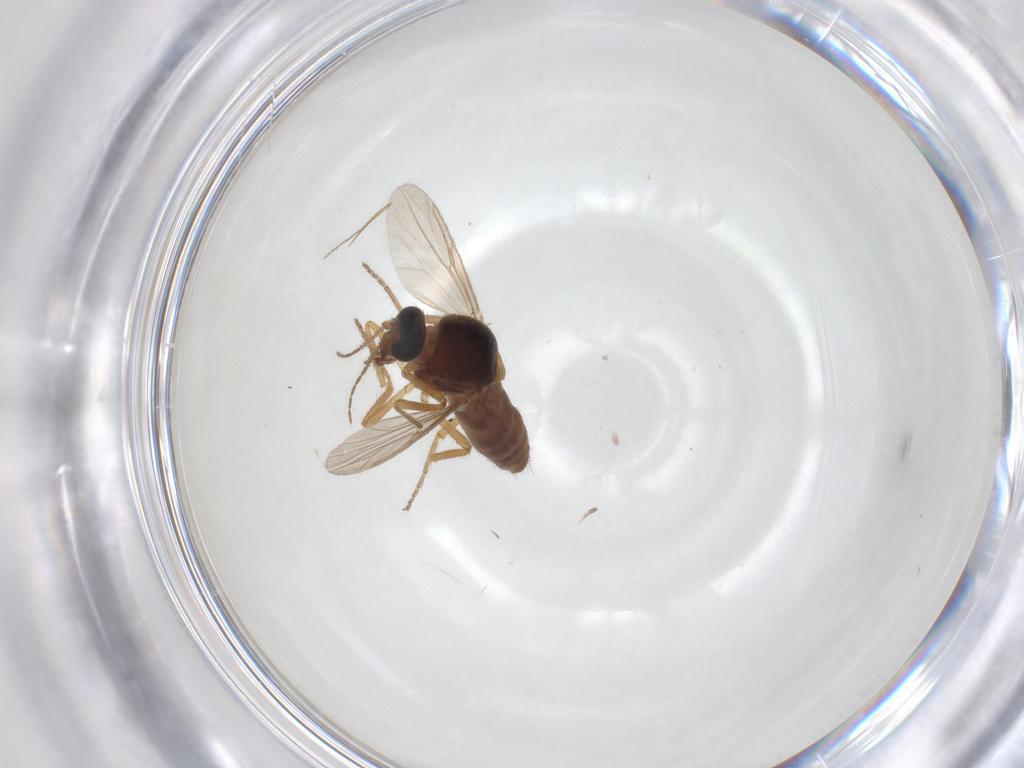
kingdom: Animalia
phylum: Arthropoda
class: Insecta
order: Diptera
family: Ceratopogonidae
